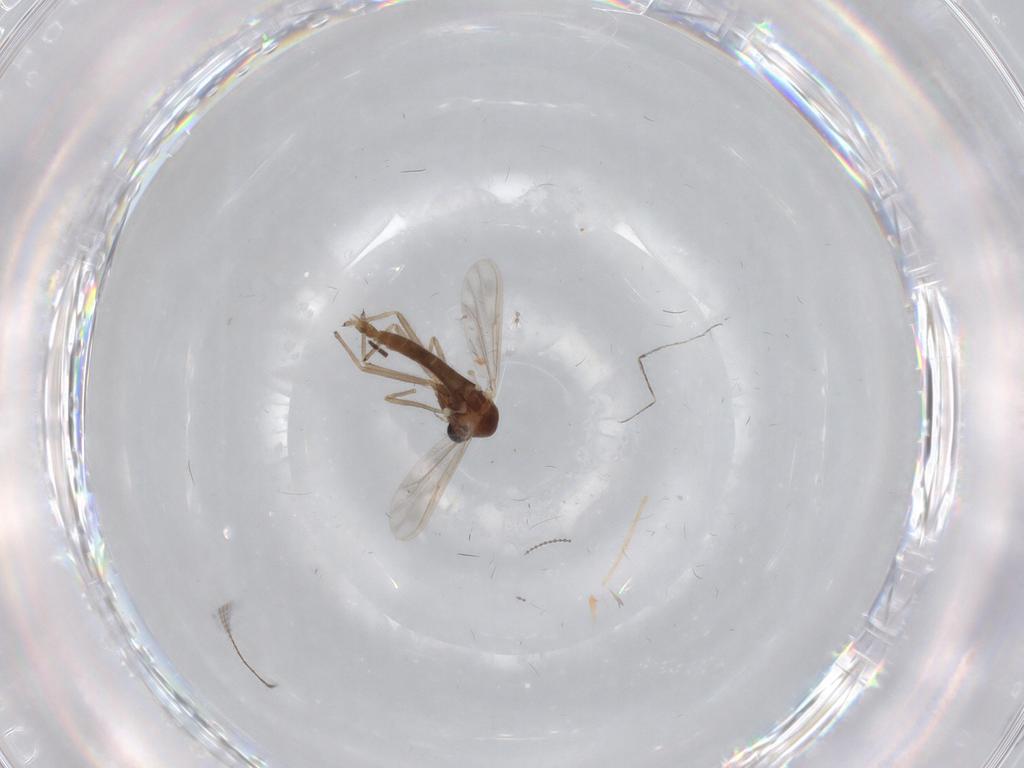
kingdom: Animalia
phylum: Arthropoda
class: Insecta
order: Diptera
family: Chironomidae
